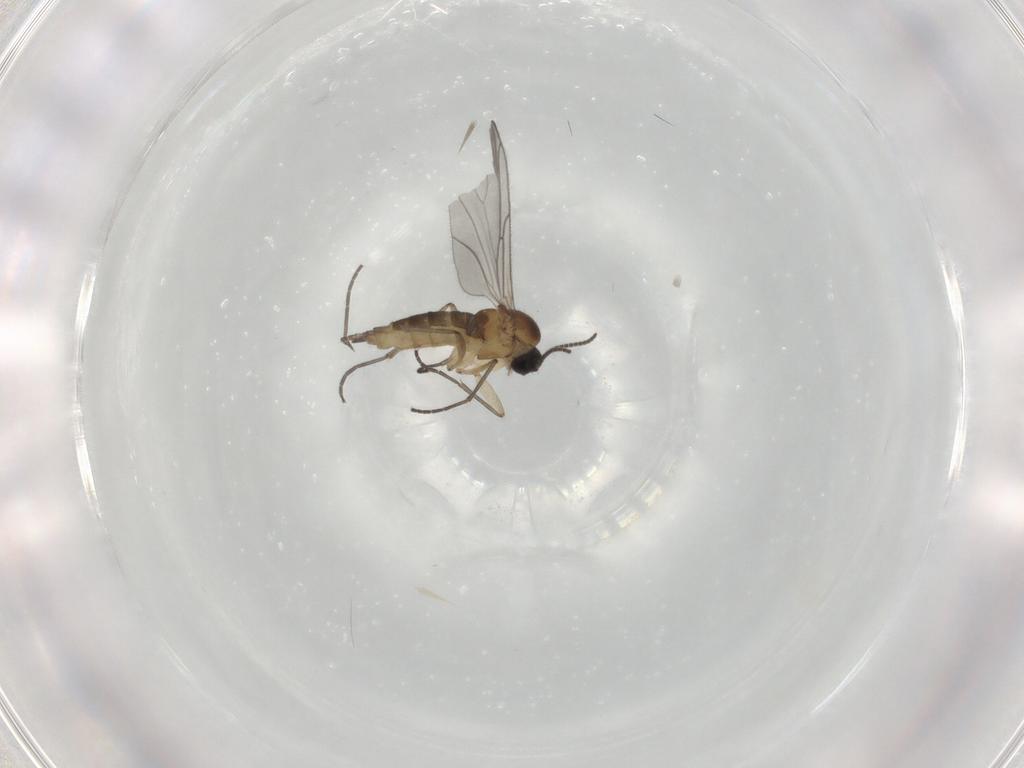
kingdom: Animalia
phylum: Arthropoda
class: Insecta
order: Diptera
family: Sciaridae
